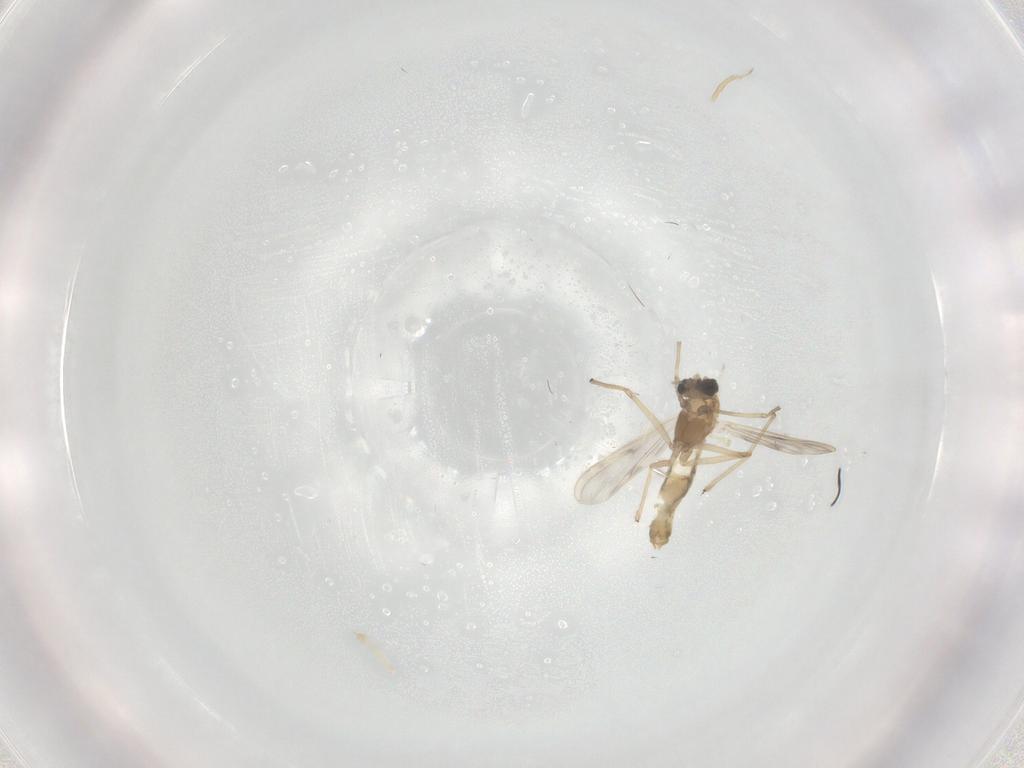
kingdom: Animalia
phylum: Arthropoda
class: Insecta
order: Diptera
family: Chironomidae
